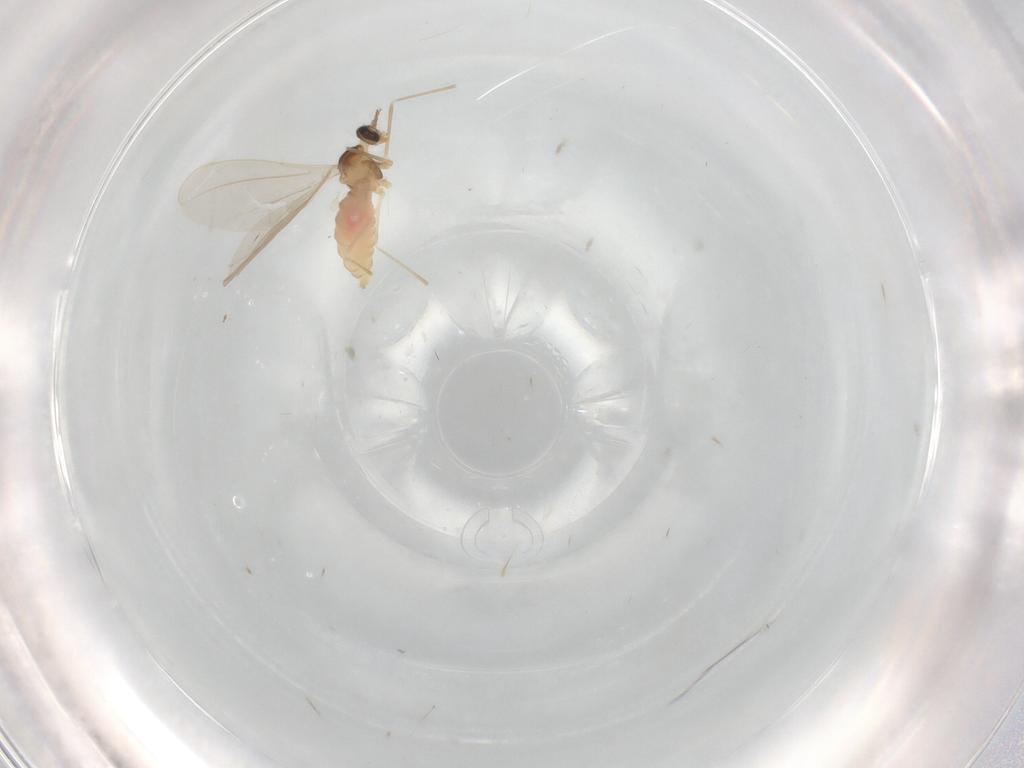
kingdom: Animalia
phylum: Arthropoda
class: Insecta
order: Diptera
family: Cecidomyiidae
